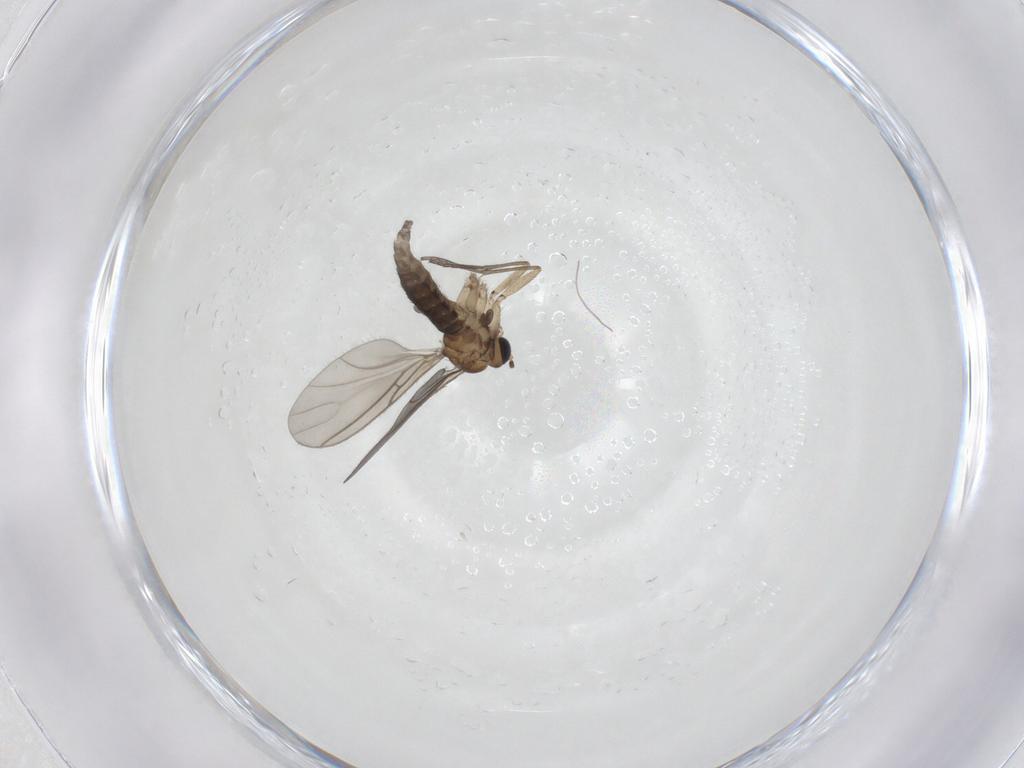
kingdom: Animalia
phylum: Arthropoda
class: Insecta
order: Diptera
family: Sciaridae
